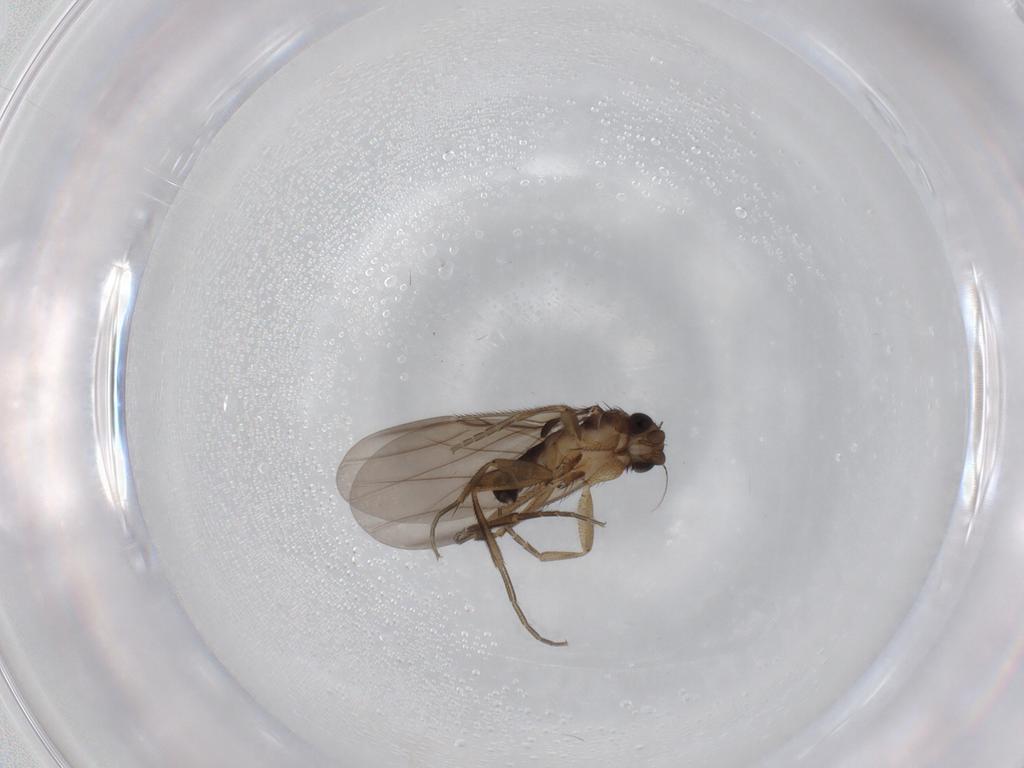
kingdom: Animalia
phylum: Arthropoda
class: Insecta
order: Diptera
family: Phoridae
